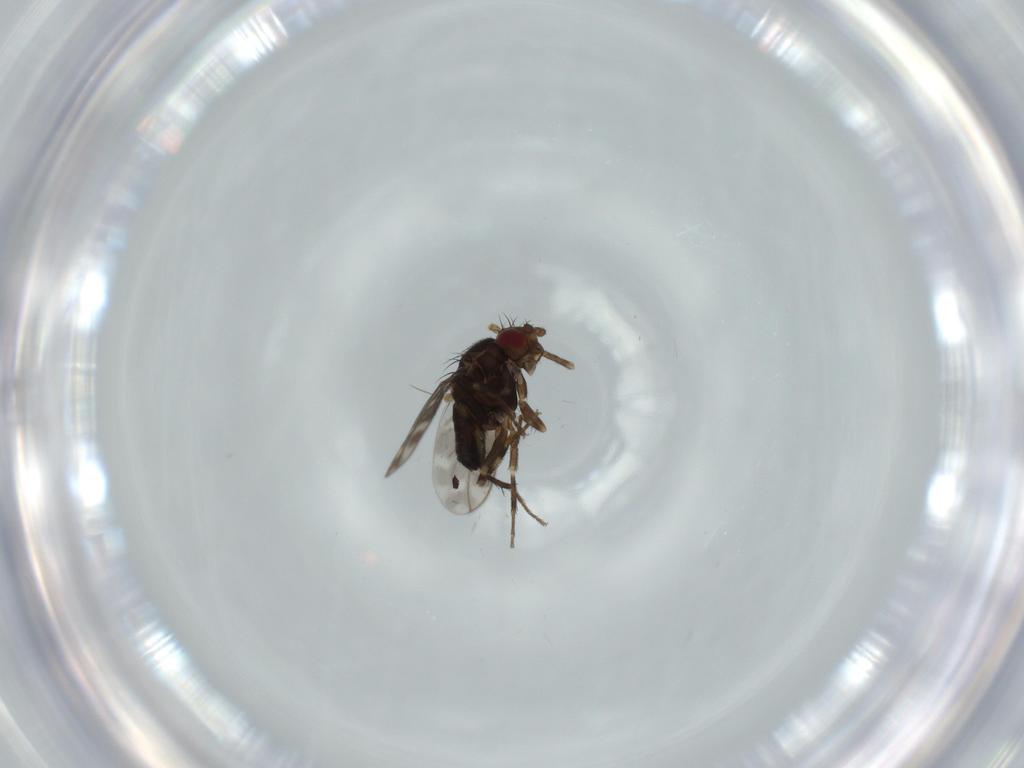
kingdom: Animalia
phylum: Arthropoda
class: Insecta
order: Diptera
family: Sphaeroceridae
